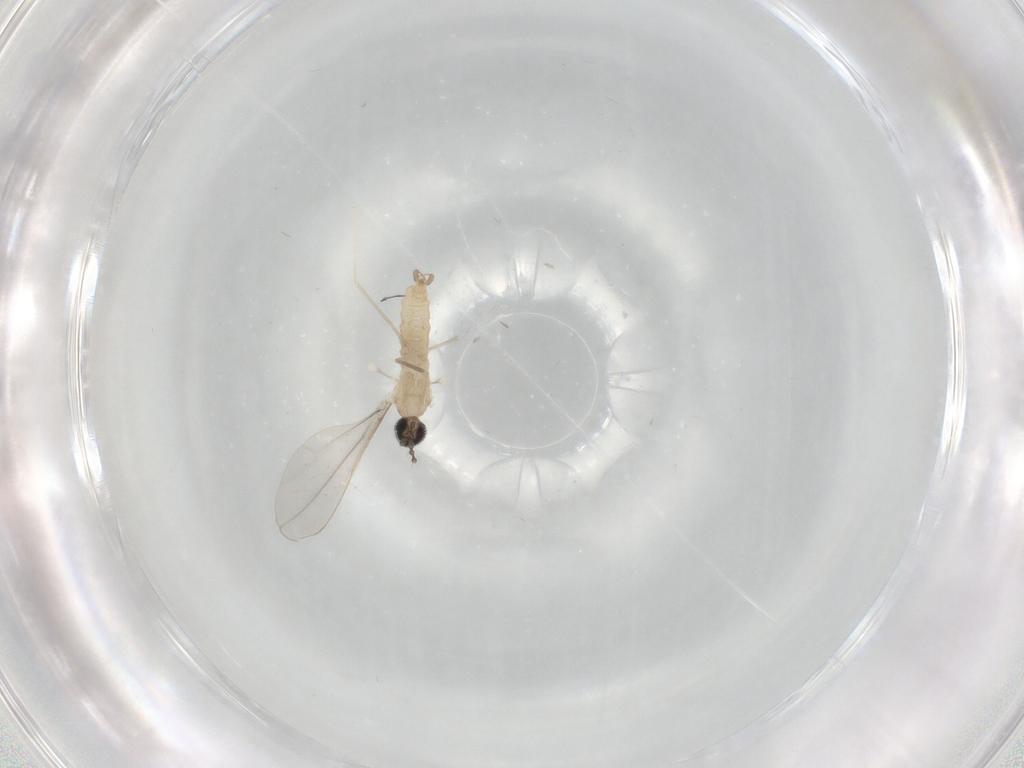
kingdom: Animalia
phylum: Arthropoda
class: Insecta
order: Diptera
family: Cecidomyiidae
